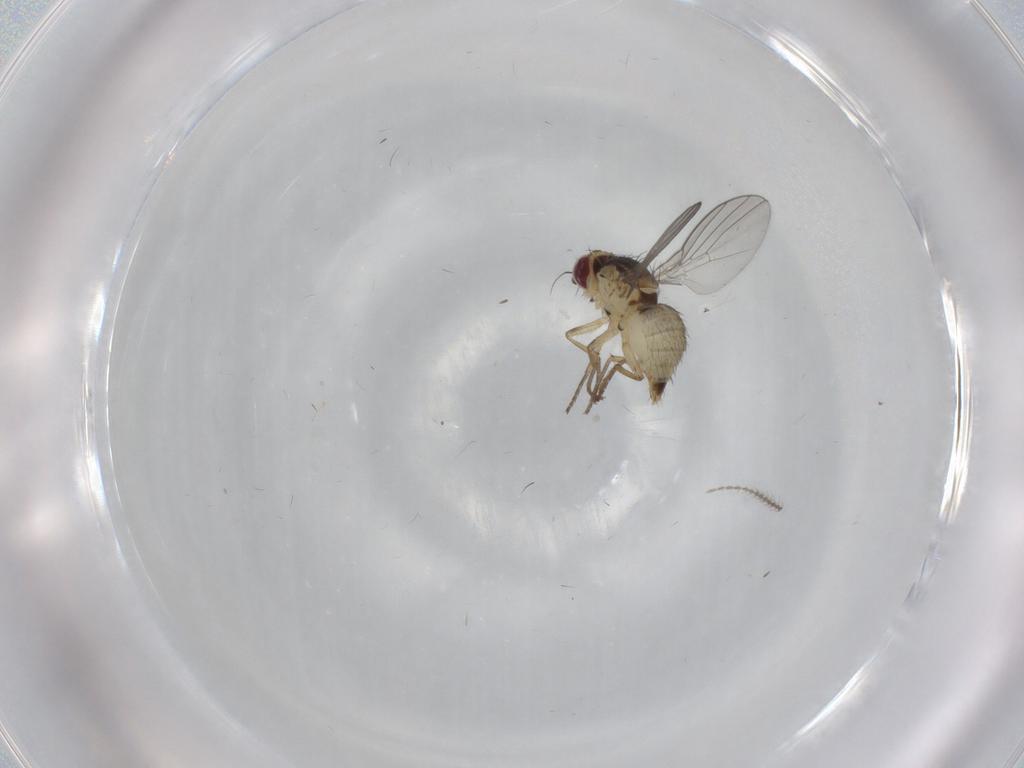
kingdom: Animalia
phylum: Arthropoda
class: Insecta
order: Diptera
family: Agromyzidae
